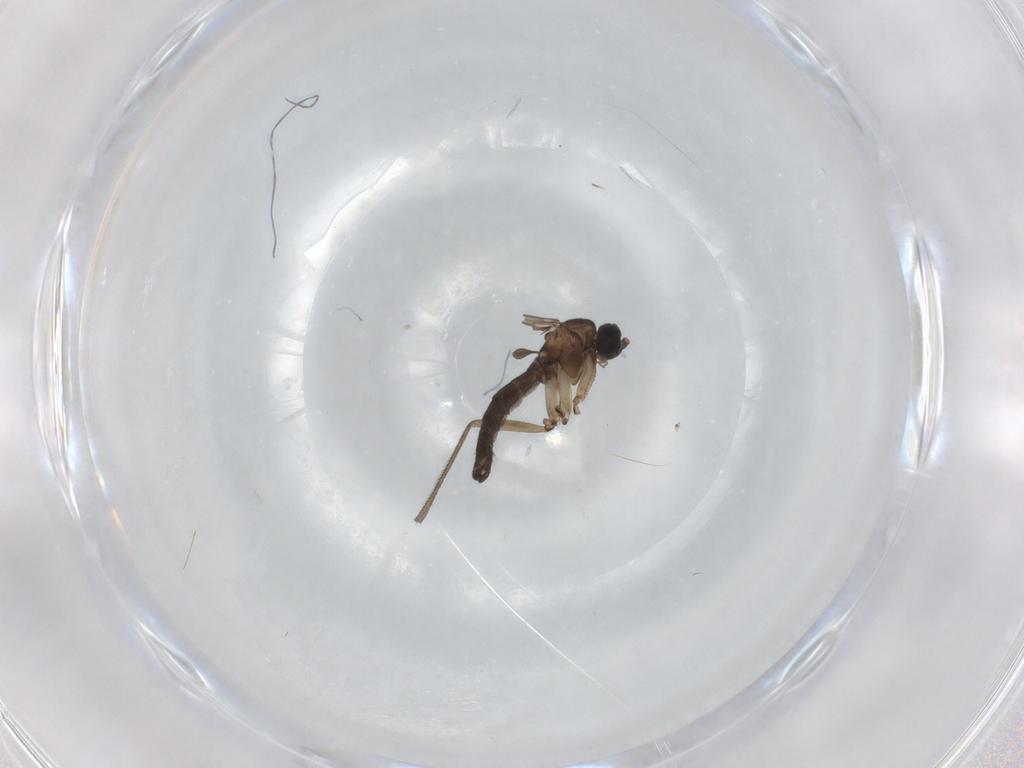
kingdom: Animalia
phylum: Arthropoda
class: Insecta
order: Diptera
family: Sciaridae
